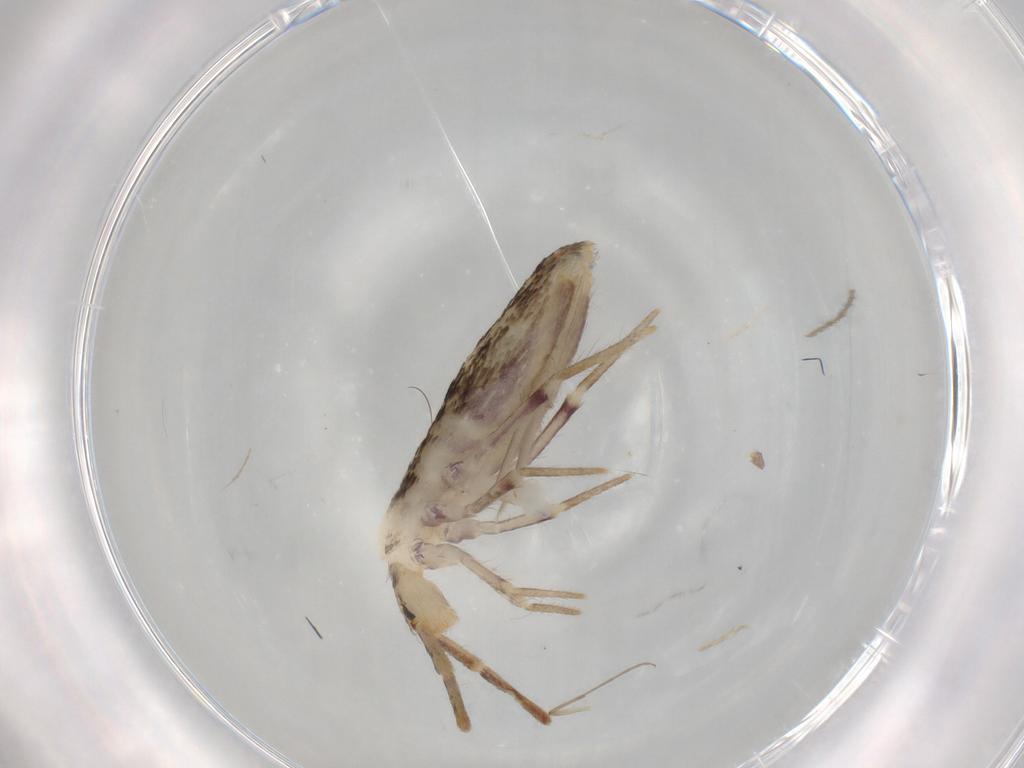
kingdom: Animalia
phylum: Arthropoda
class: Collembola
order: Poduromorpha
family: Hypogastruridae
